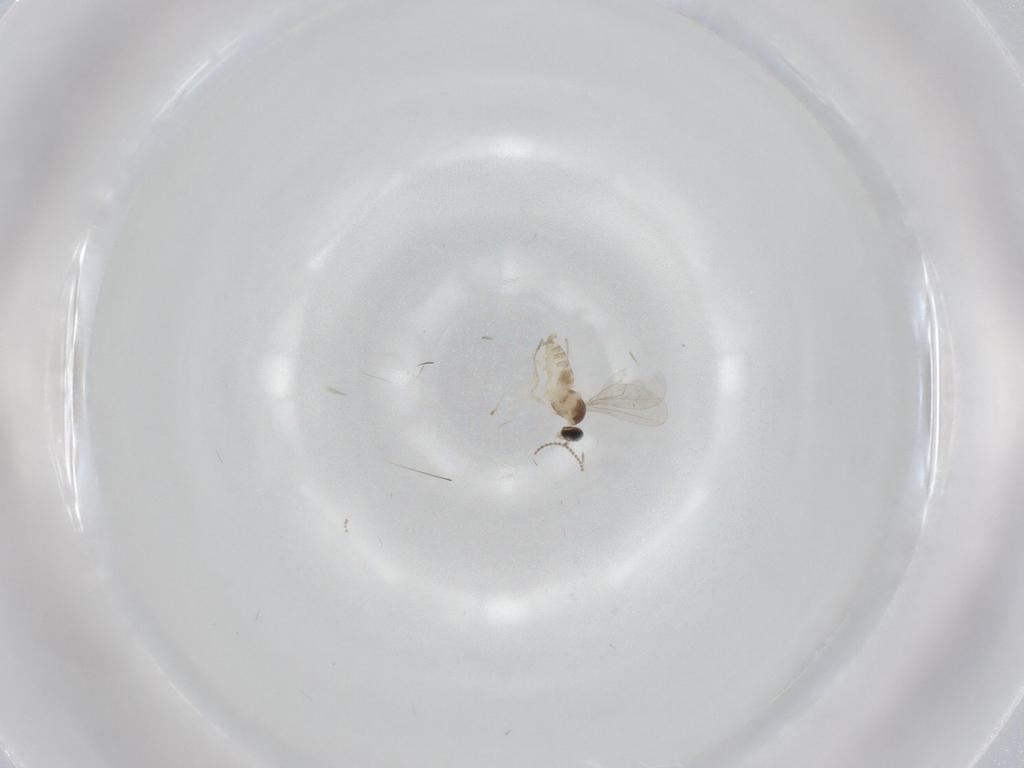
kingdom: Animalia
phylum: Arthropoda
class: Insecta
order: Diptera
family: Cecidomyiidae
